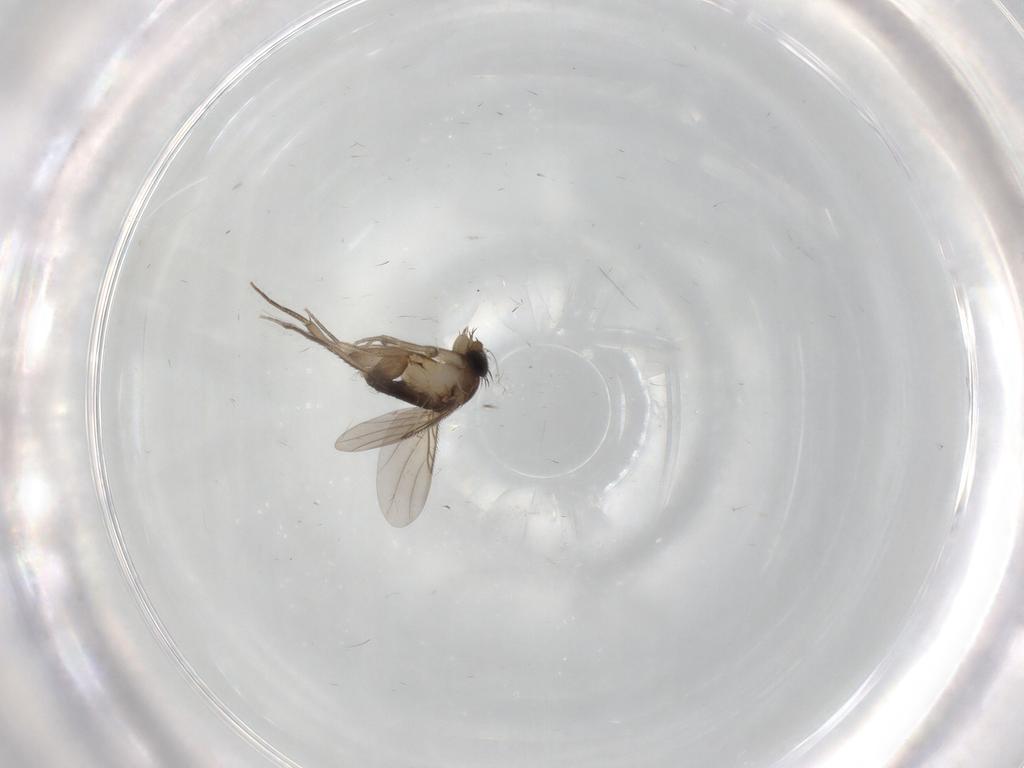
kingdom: Animalia
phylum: Arthropoda
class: Insecta
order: Diptera
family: Phoridae
